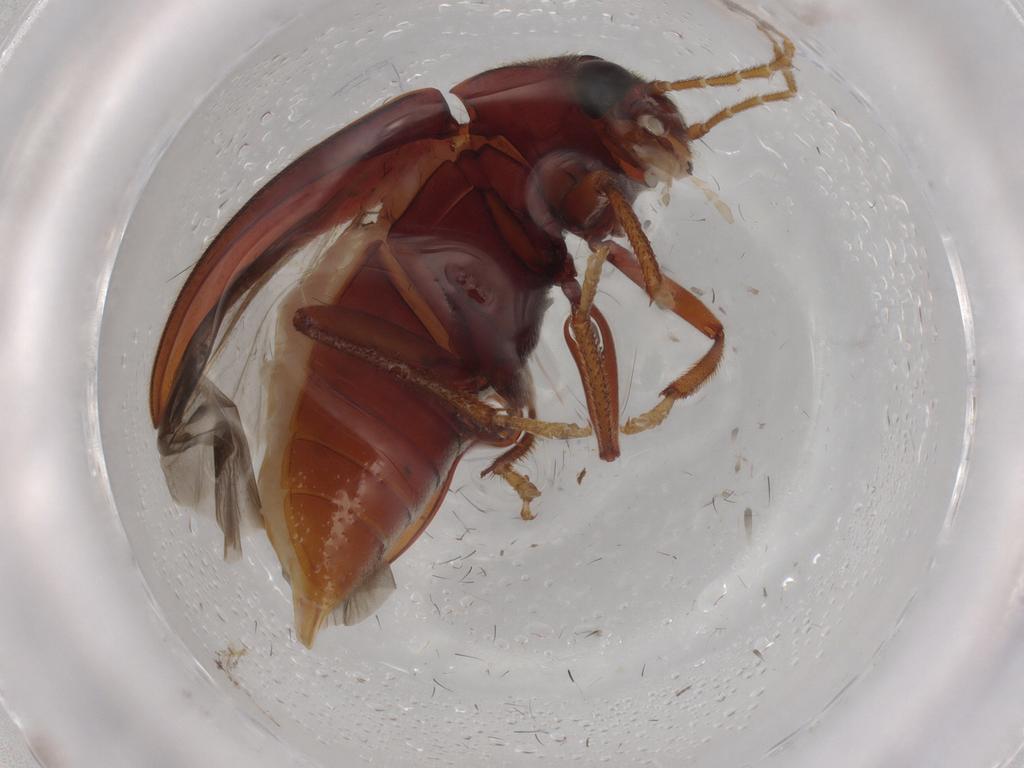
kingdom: Animalia
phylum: Arthropoda
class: Insecta
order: Coleoptera
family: Ptilodactylidae
